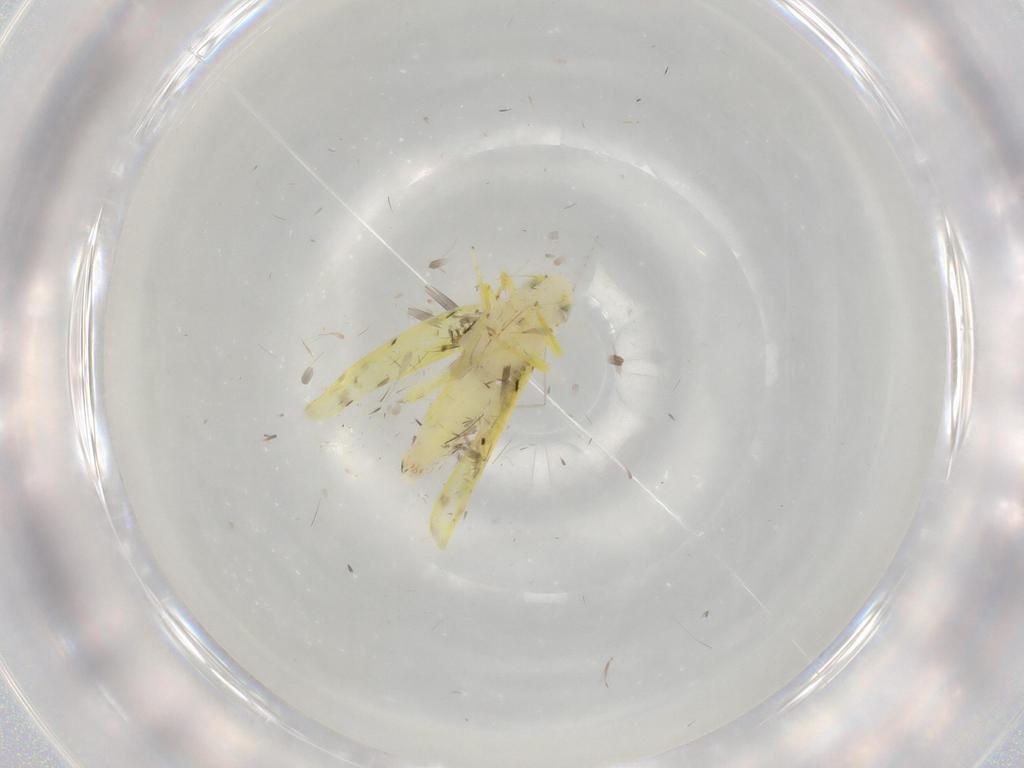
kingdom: Animalia
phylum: Arthropoda
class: Insecta
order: Hemiptera
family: Cicadellidae
